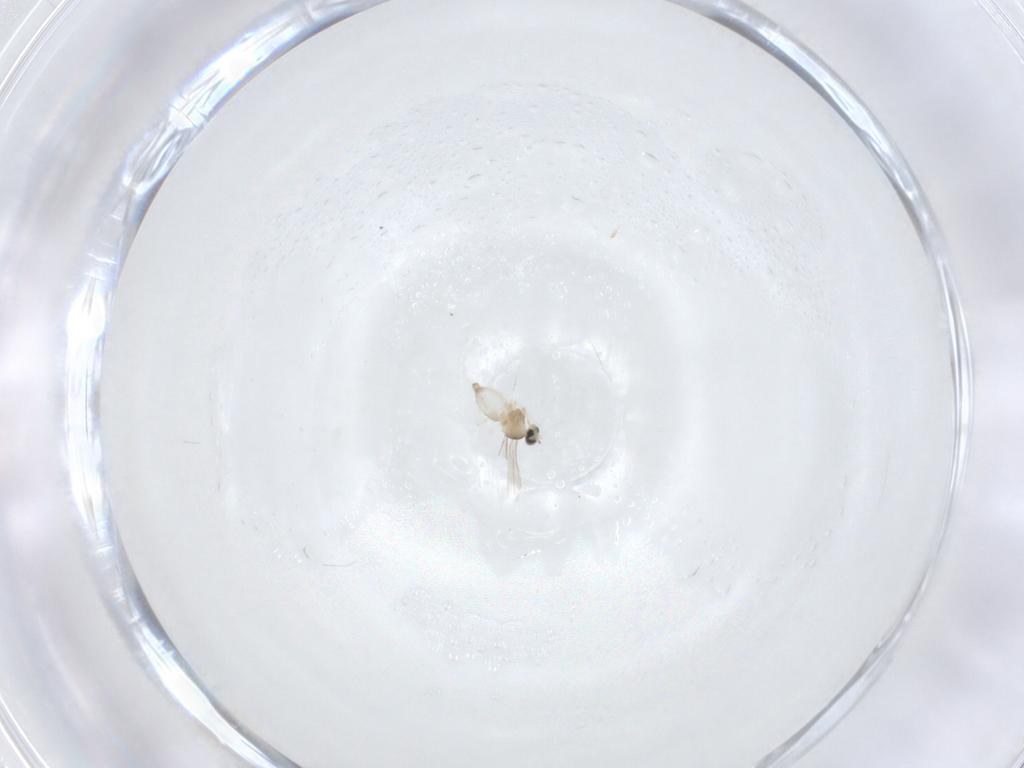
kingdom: Animalia
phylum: Arthropoda
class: Insecta
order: Diptera
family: Cecidomyiidae
